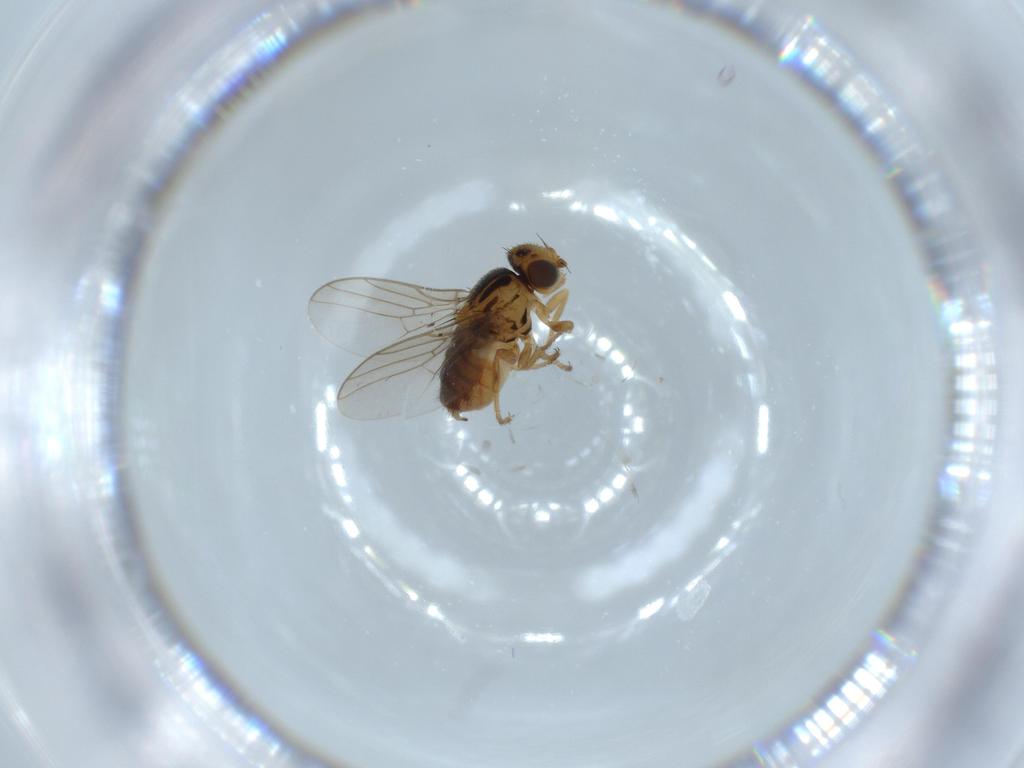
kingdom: Animalia
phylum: Arthropoda
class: Insecta
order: Diptera
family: Chloropidae
